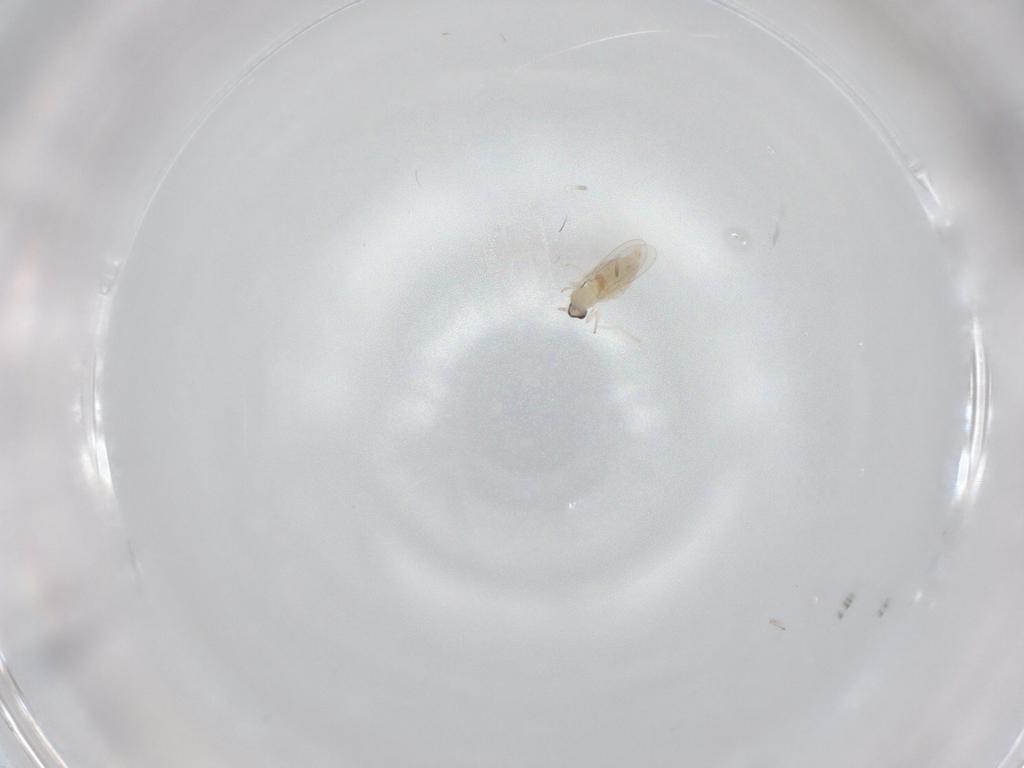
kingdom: Animalia
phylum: Arthropoda
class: Insecta
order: Diptera
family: Cecidomyiidae
